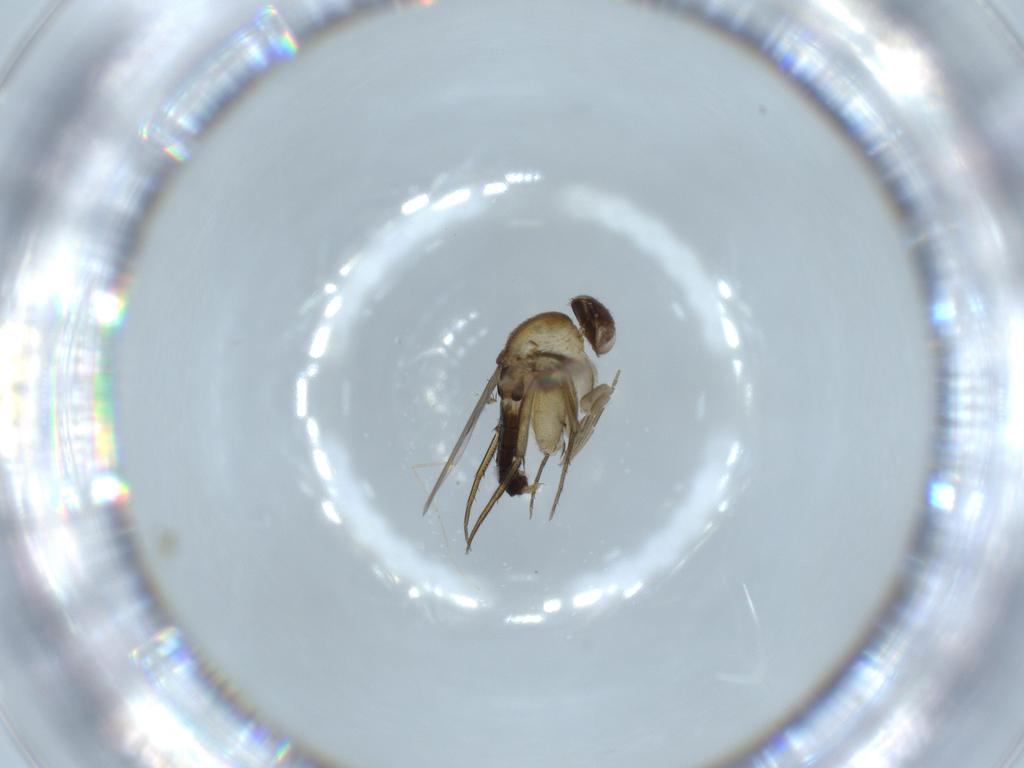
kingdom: Animalia
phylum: Arthropoda
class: Insecta
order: Diptera
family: Phoridae
